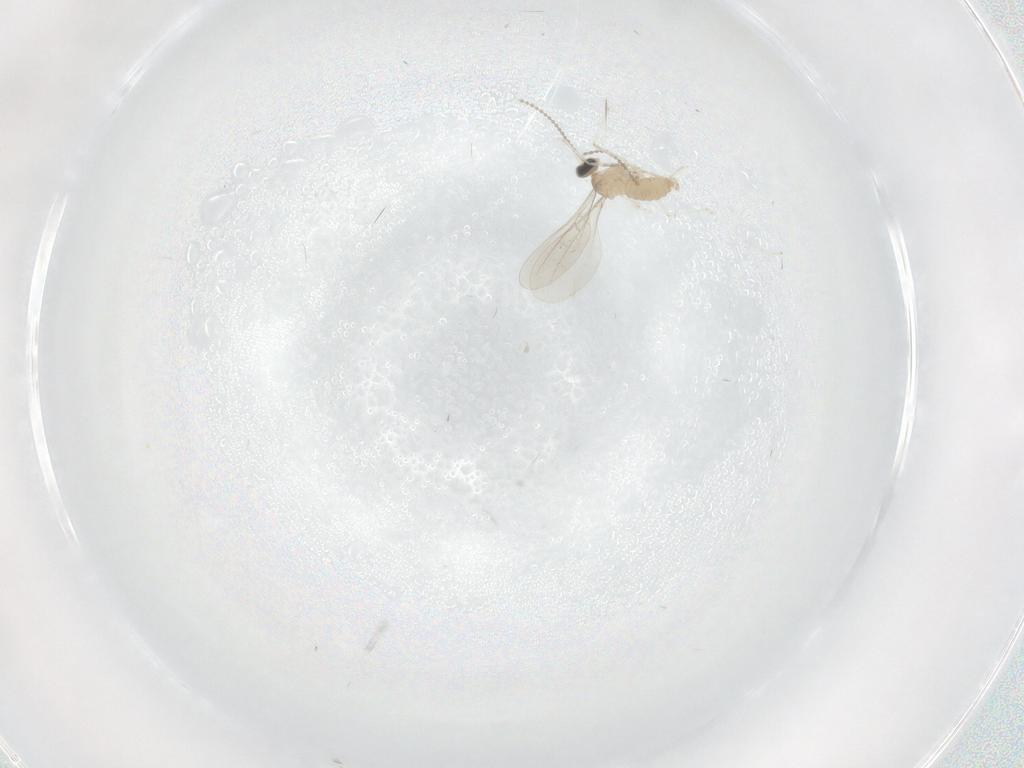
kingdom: Animalia
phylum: Arthropoda
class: Insecta
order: Diptera
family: Cecidomyiidae
